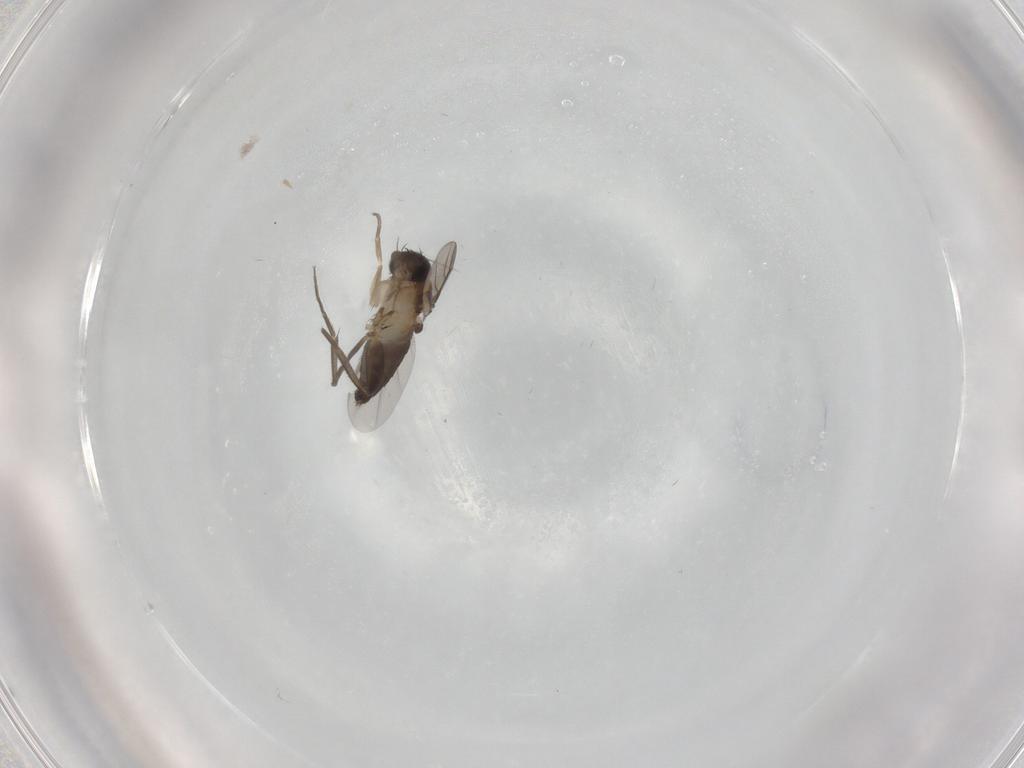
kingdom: Animalia
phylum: Arthropoda
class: Insecta
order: Diptera
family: Phoridae
